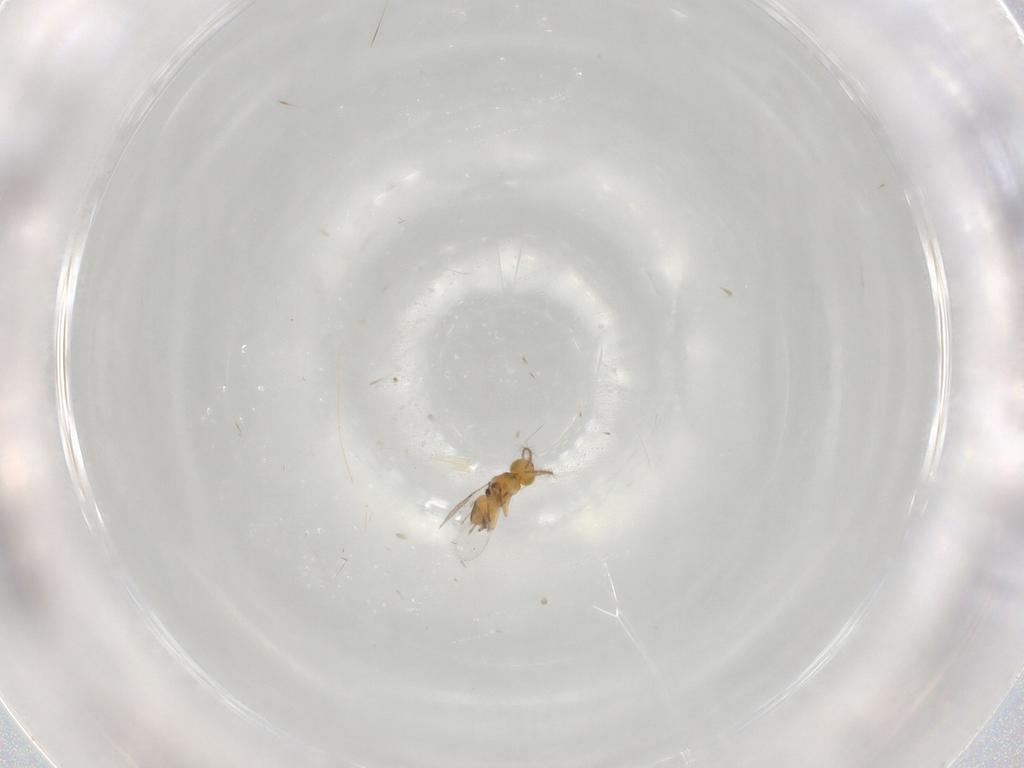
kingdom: Animalia
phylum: Arthropoda
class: Insecta
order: Hymenoptera
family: Encyrtidae
